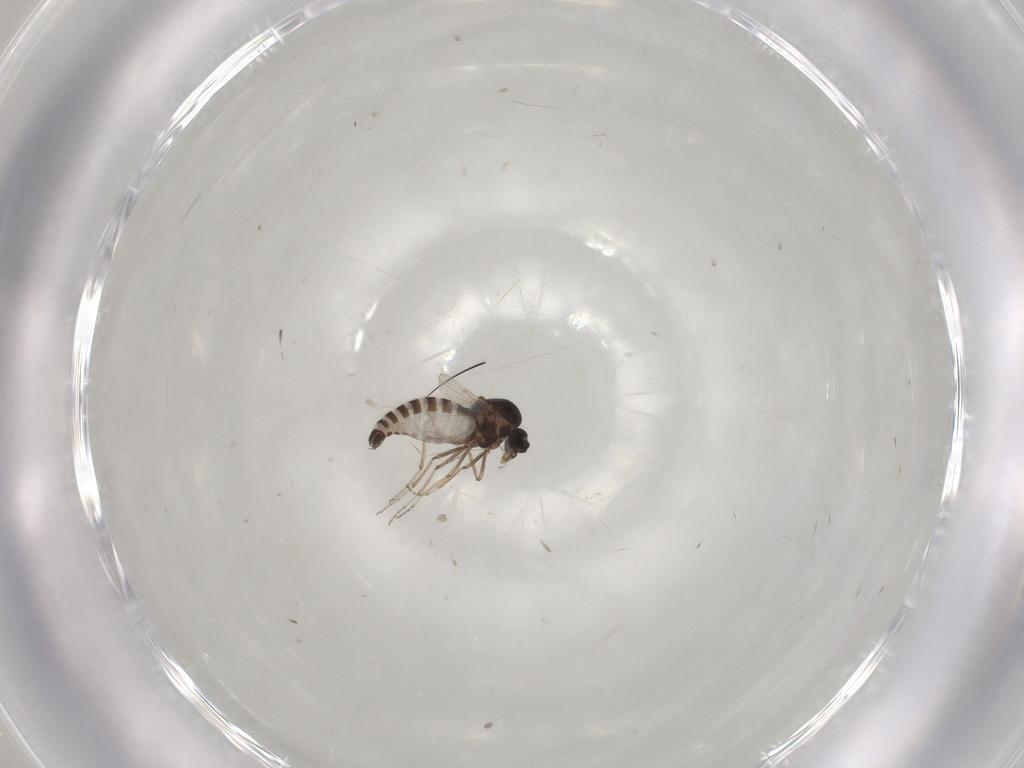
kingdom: Animalia
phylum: Arthropoda
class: Insecta
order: Diptera
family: Ceratopogonidae
